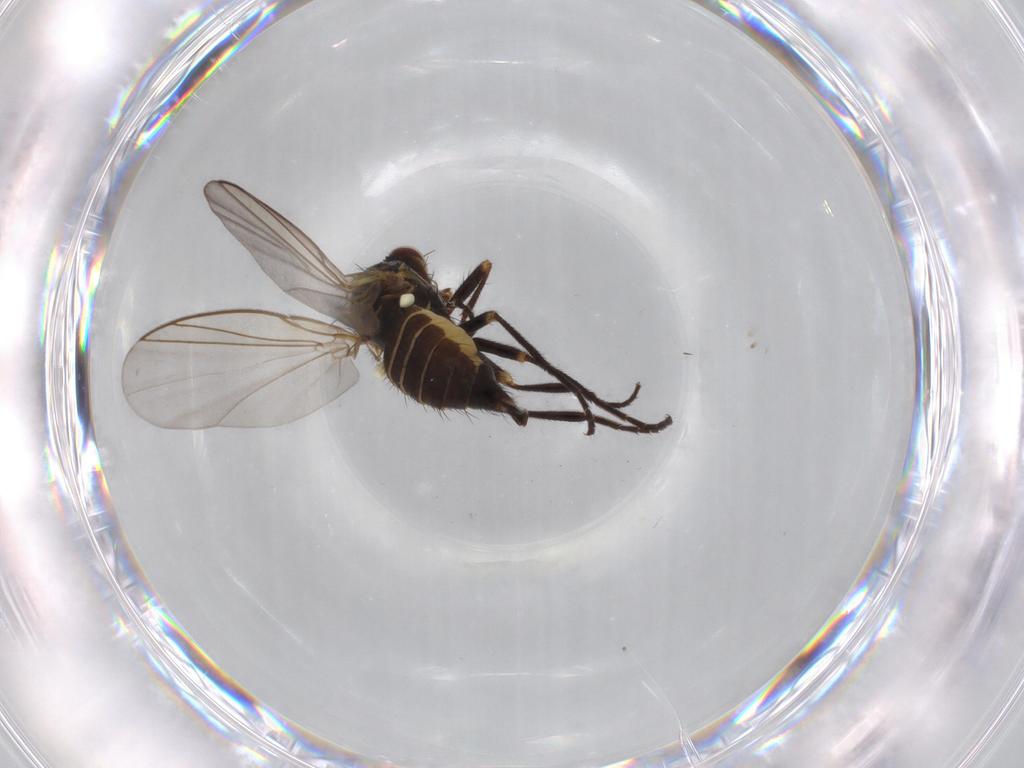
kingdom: Animalia
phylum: Arthropoda
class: Insecta
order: Diptera
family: Agromyzidae
